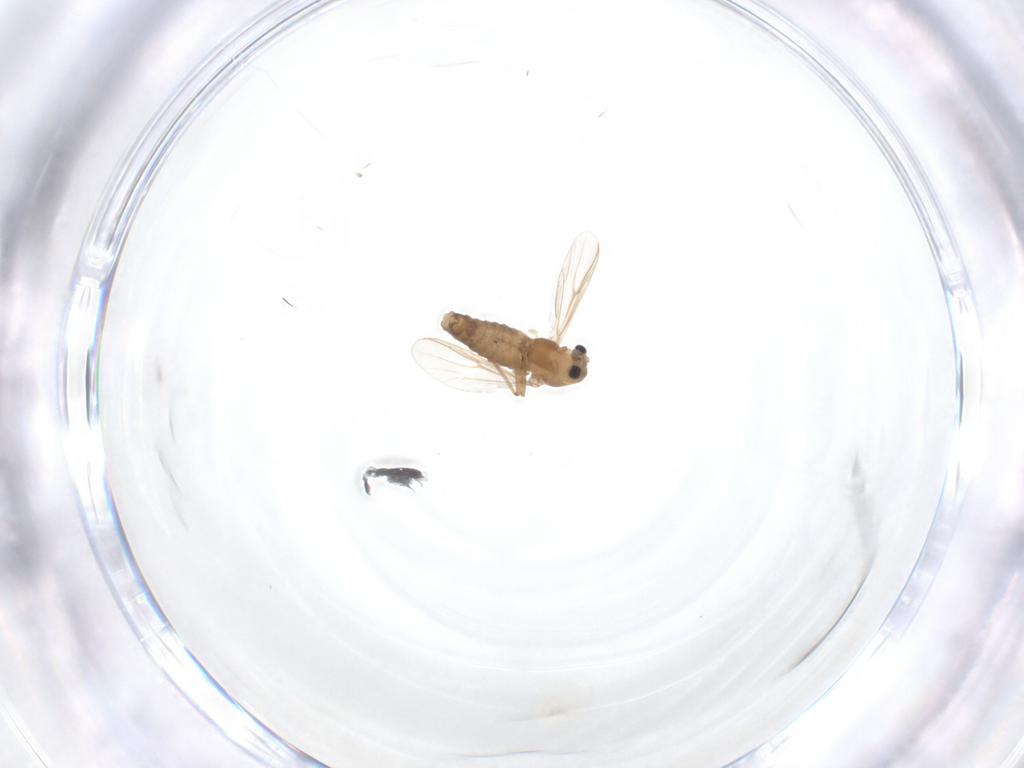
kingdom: Animalia
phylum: Arthropoda
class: Insecta
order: Diptera
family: Chironomidae
